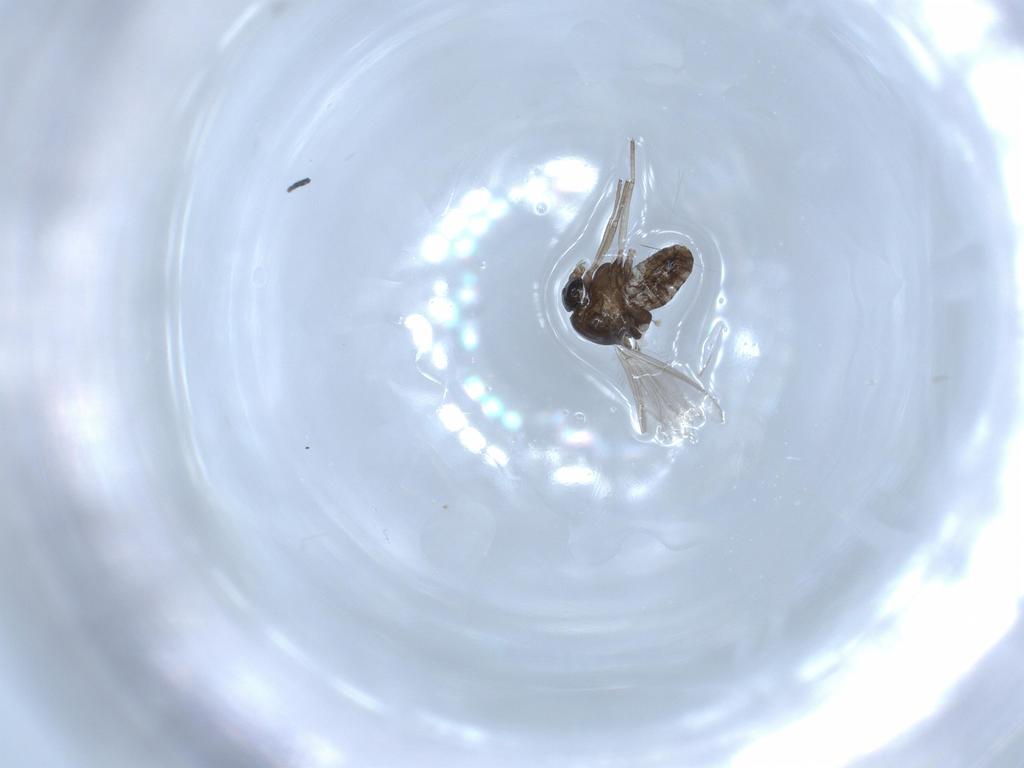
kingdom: Animalia
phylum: Arthropoda
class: Insecta
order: Diptera
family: Chironomidae
